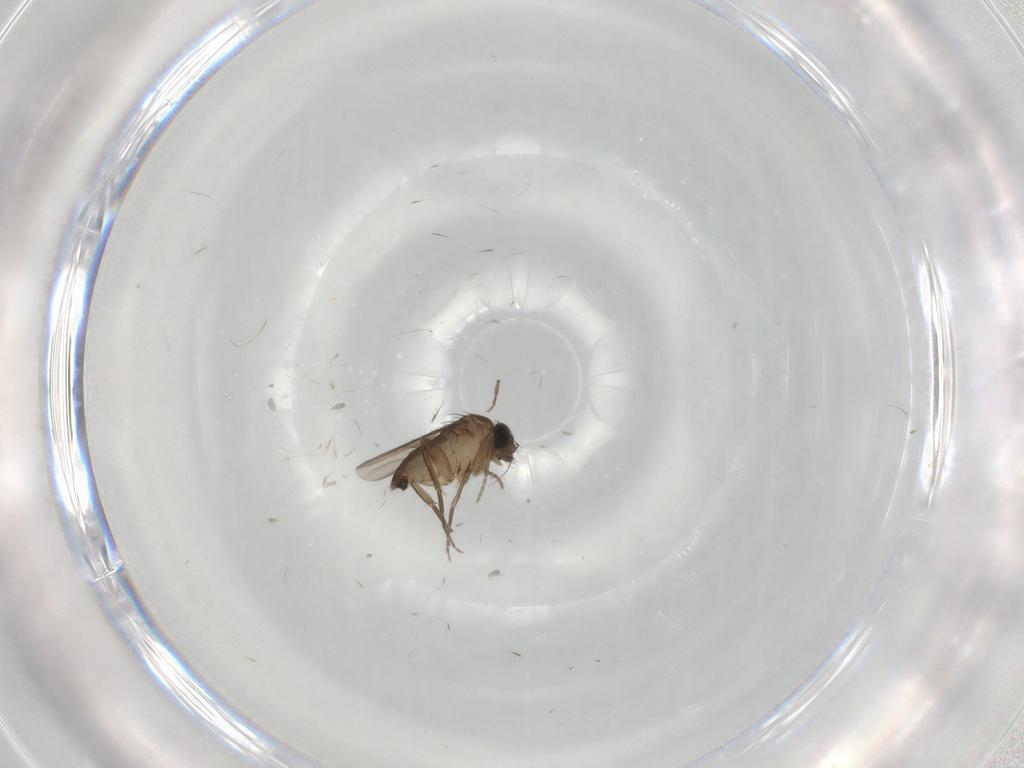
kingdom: Animalia
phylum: Arthropoda
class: Insecta
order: Diptera
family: Phoridae
